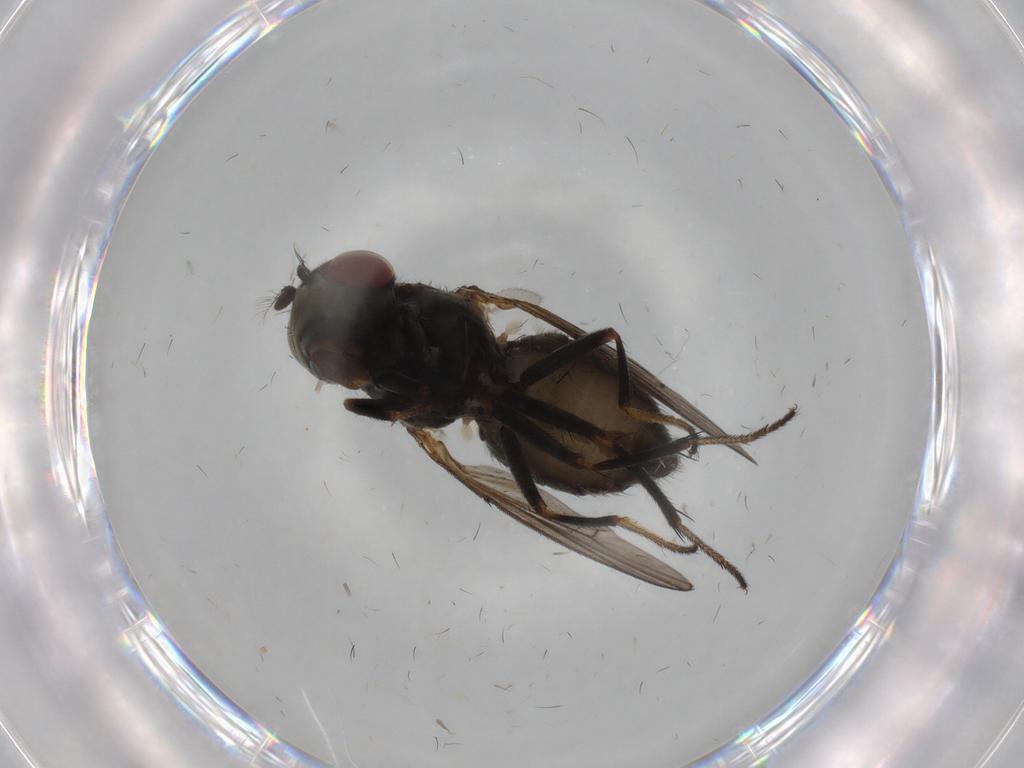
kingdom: Animalia
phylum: Arthropoda
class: Insecta
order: Diptera
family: Ephydridae
